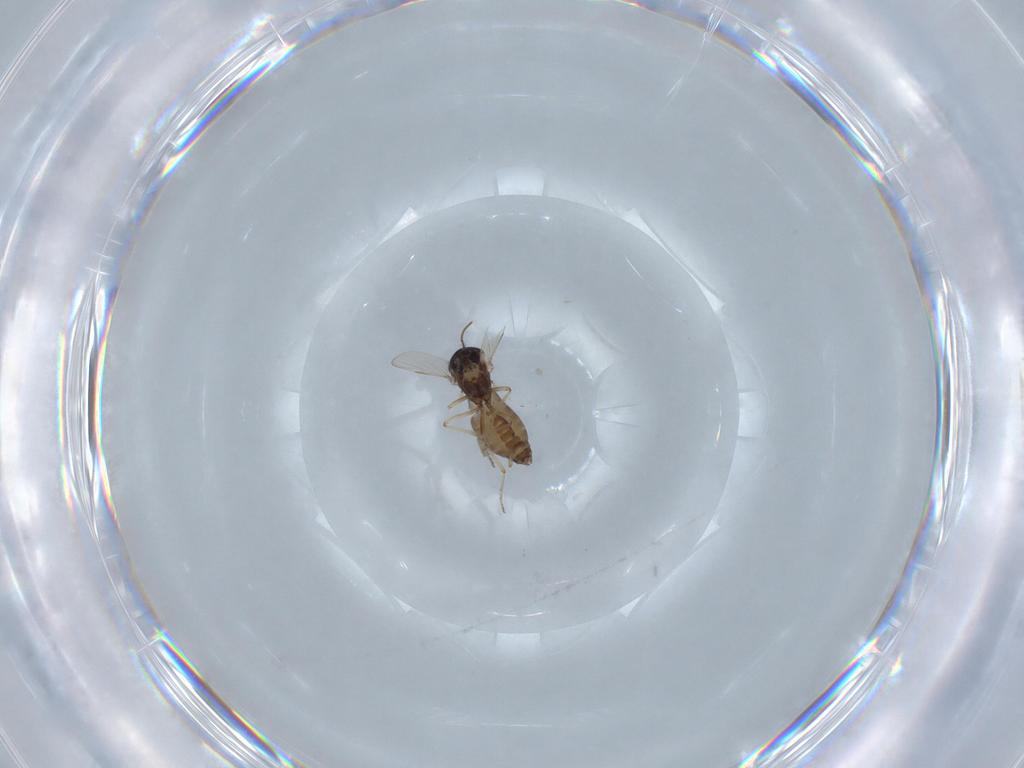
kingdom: Animalia
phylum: Arthropoda
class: Insecta
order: Diptera
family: Ceratopogonidae
